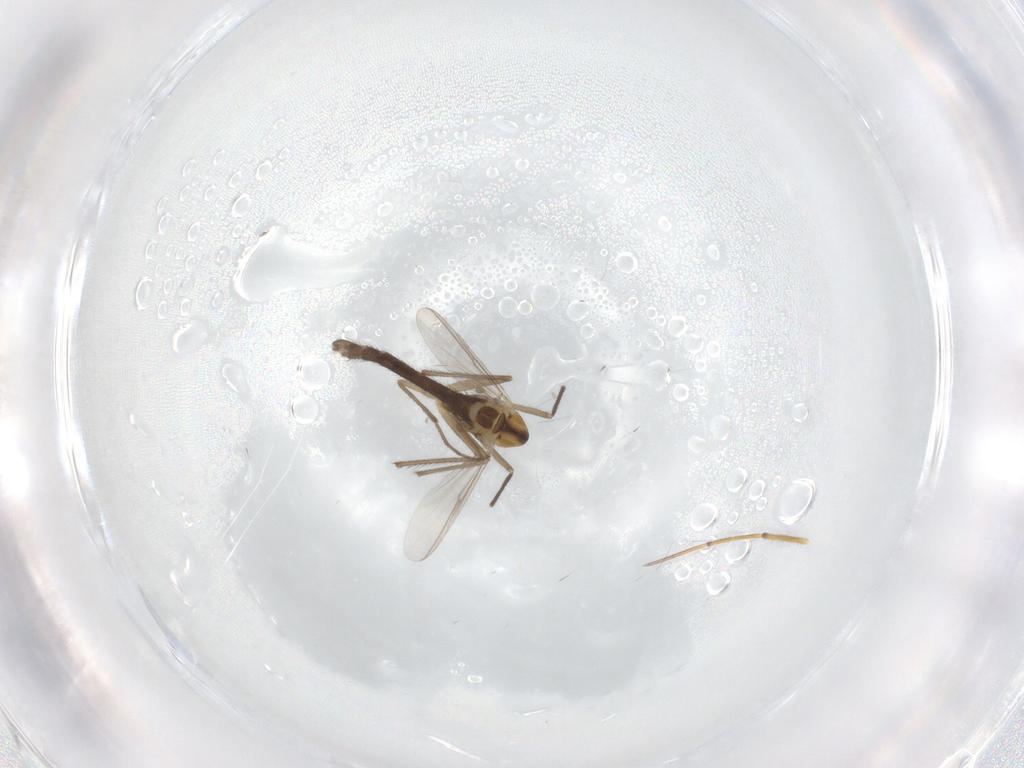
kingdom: Animalia
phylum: Arthropoda
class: Insecta
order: Diptera
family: Chironomidae
